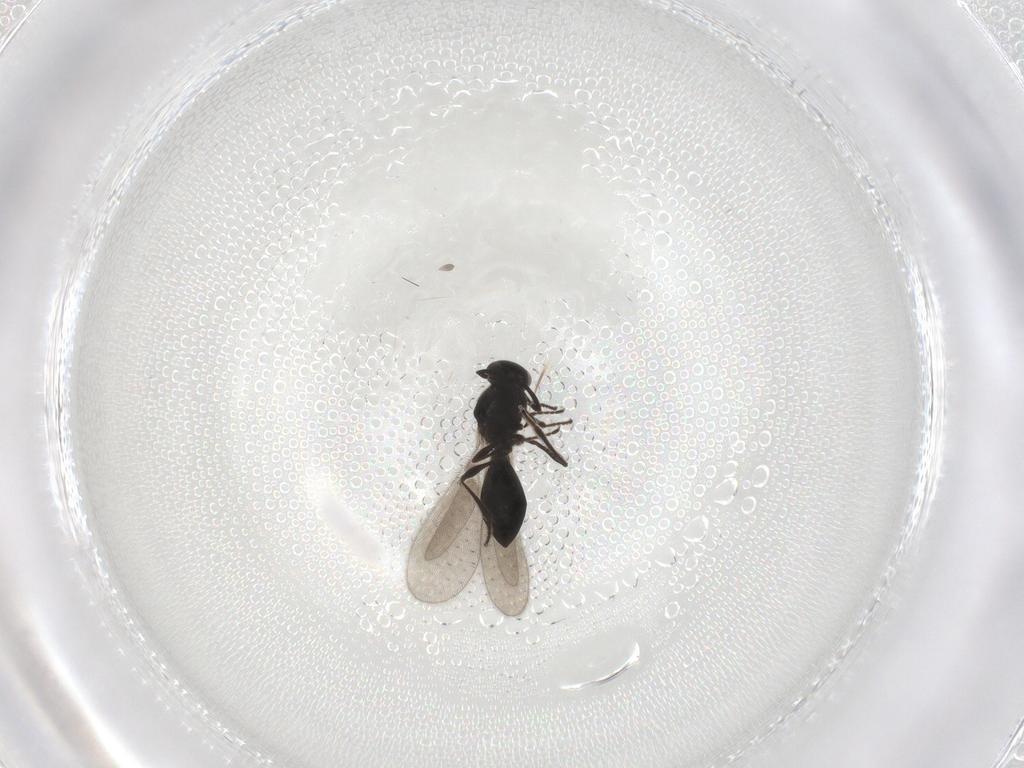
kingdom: Animalia
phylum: Arthropoda
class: Insecta
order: Hymenoptera
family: Platygastridae
